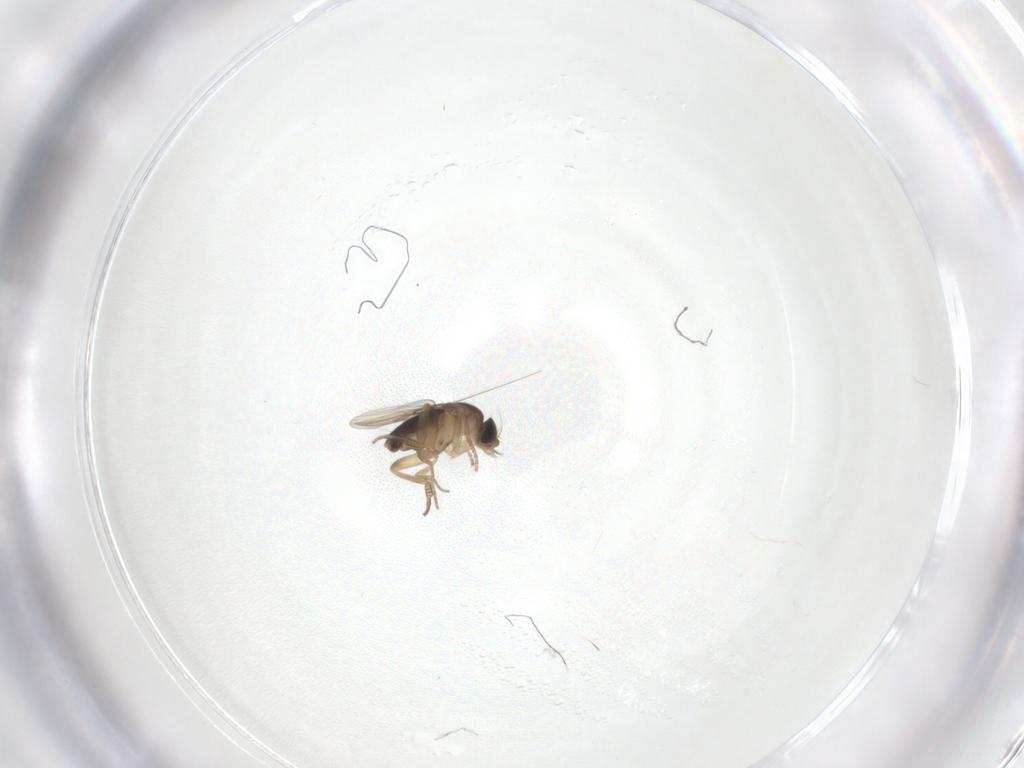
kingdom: Animalia
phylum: Arthropoda
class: Insecta
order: Diptera
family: Phoridae
